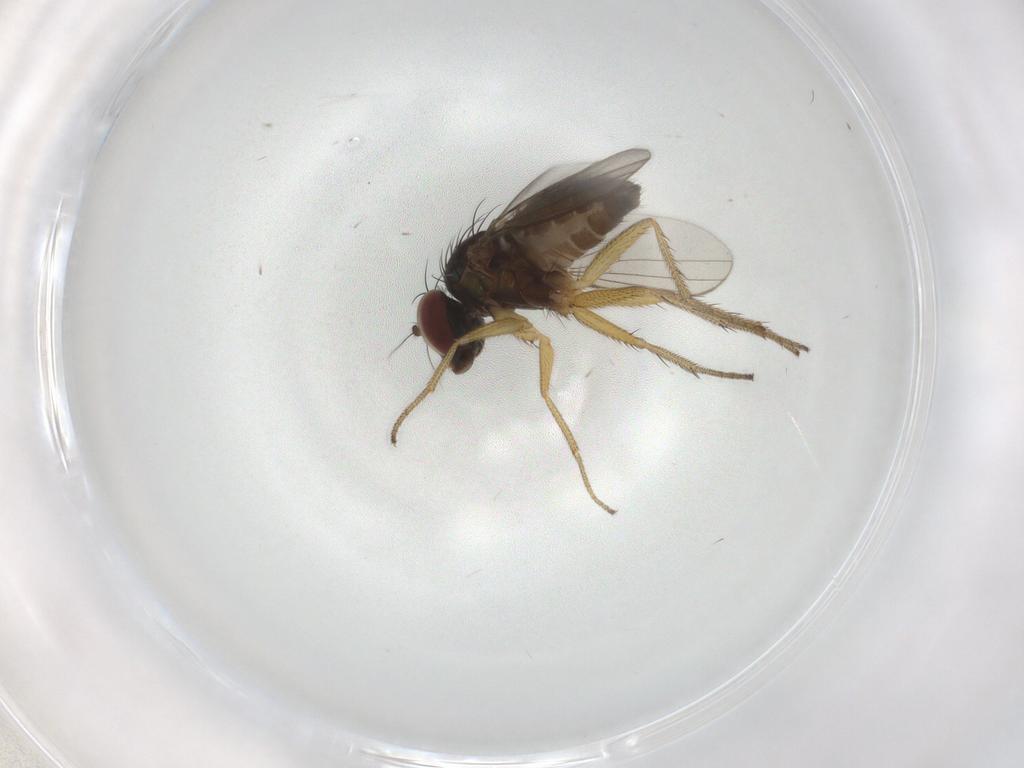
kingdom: Animalia
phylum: Arthropoda
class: Insecta
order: Diptera
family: Dolichopodidae
